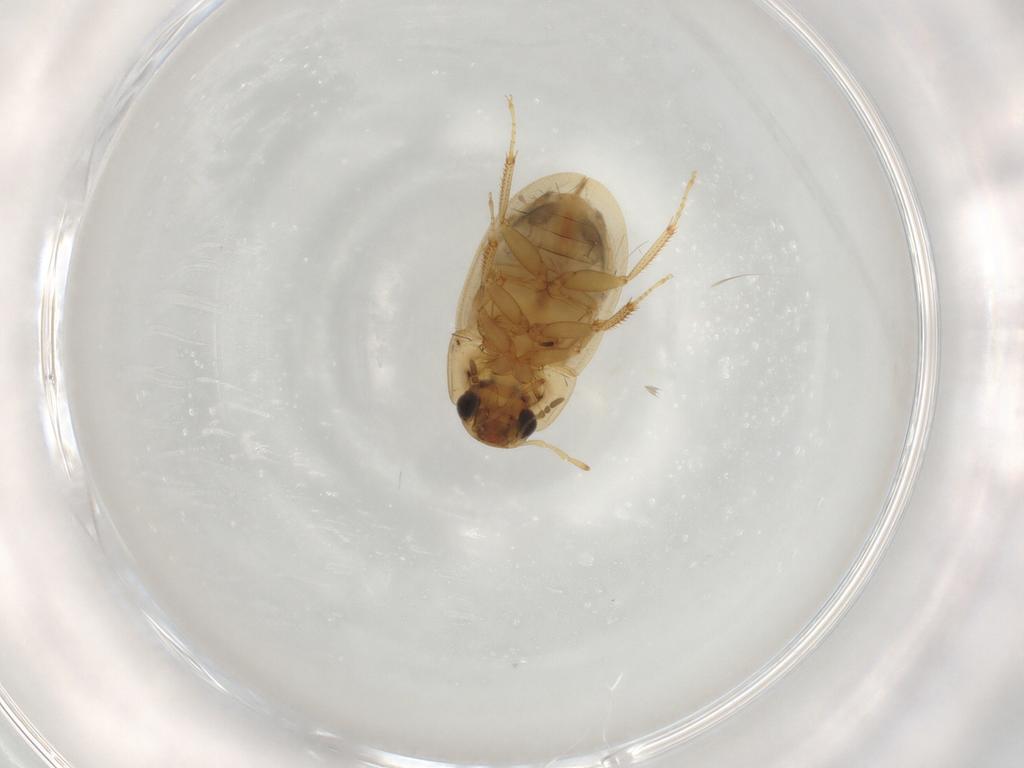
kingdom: Animalia
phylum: Arthropoda
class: Insecta
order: Coleoptera
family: Hydrophilidae
